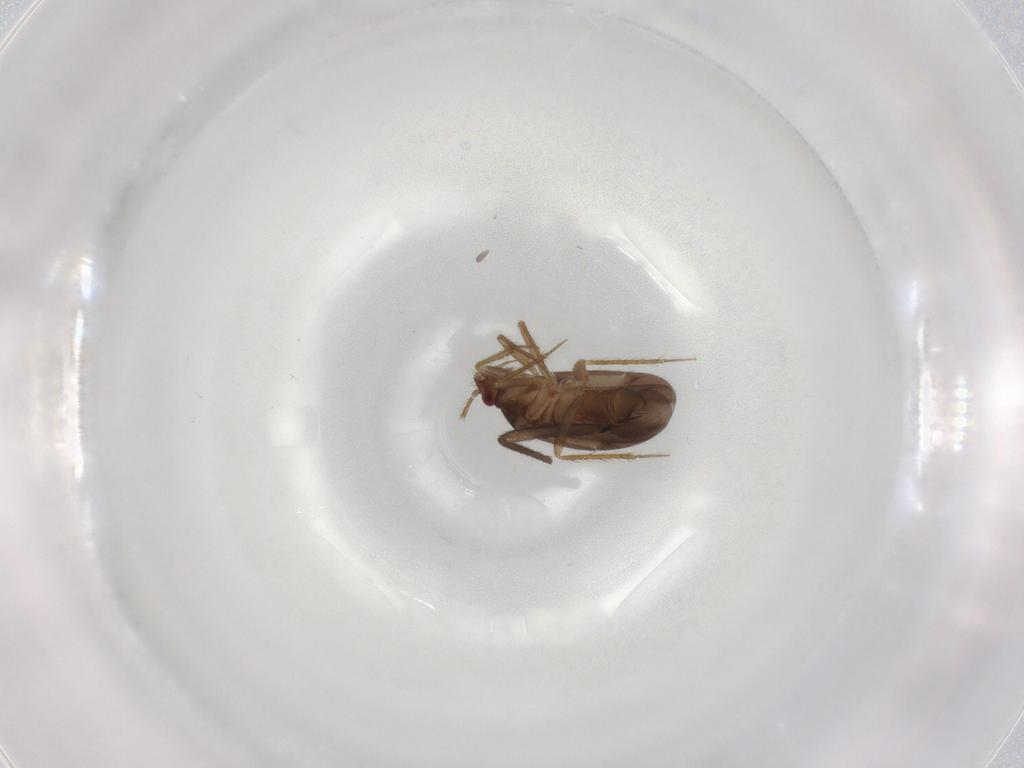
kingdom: Animalia
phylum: Arthropoda
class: Insecta
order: Hemiptera
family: Ceratocombidae
